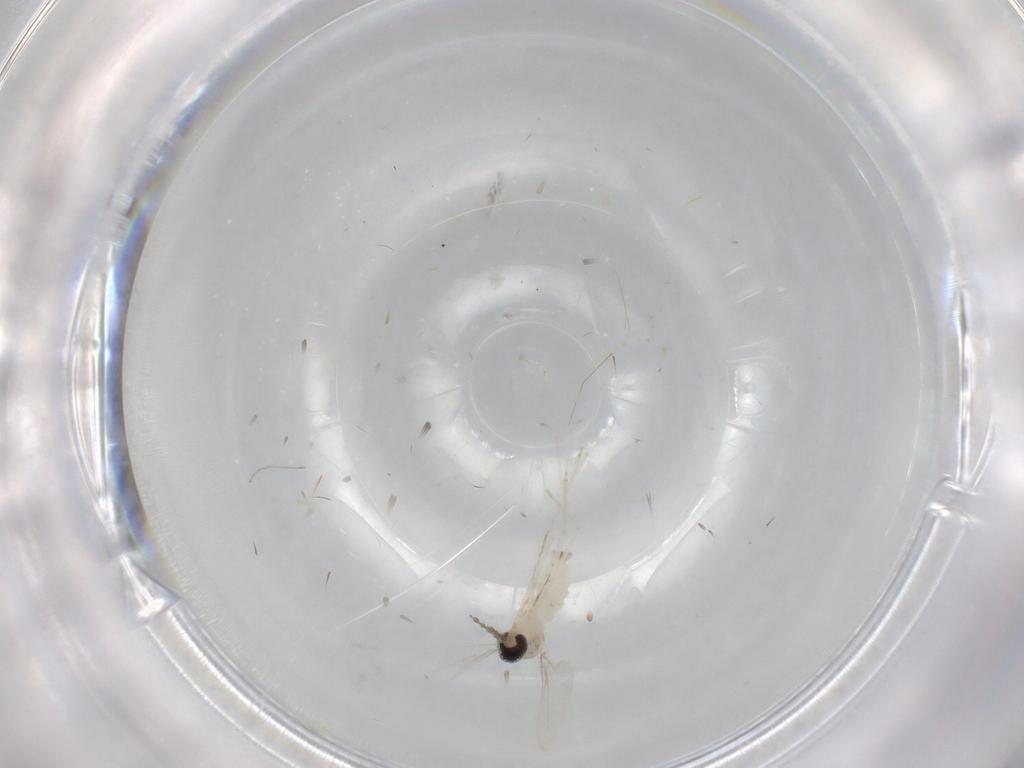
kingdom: Animalia
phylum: Arthropoda
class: Insecta
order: Diptera
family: Cecidomyiidae
